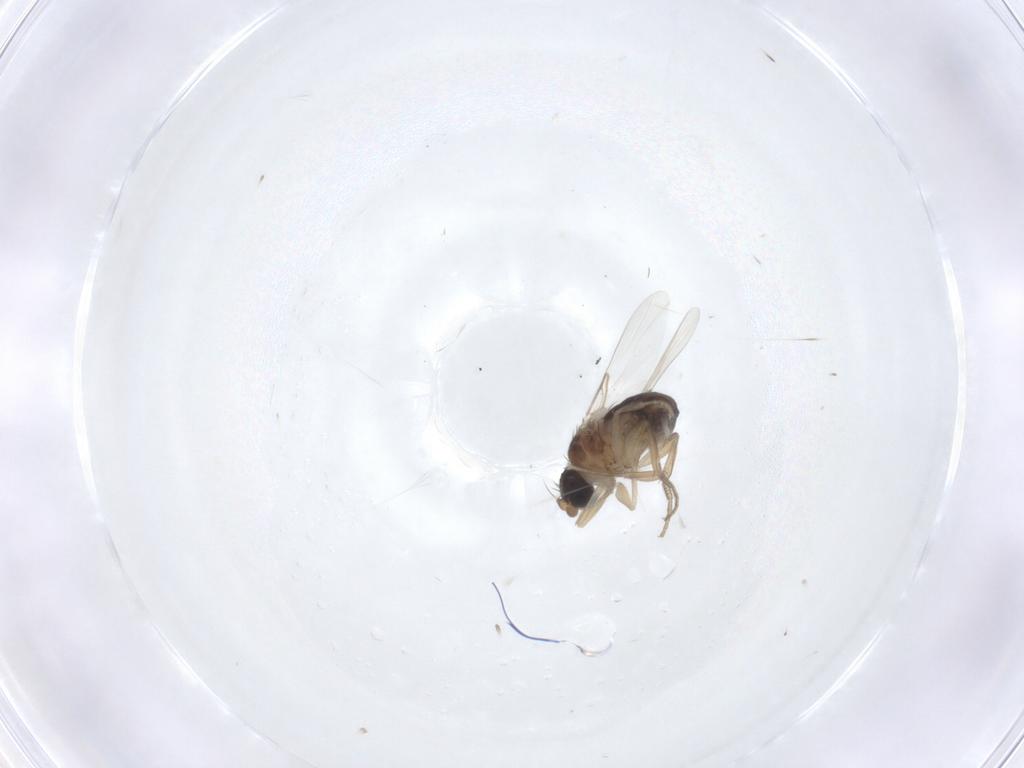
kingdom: Animalia
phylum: Arthropoda
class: Insecta
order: Diptera
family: Phoridae
